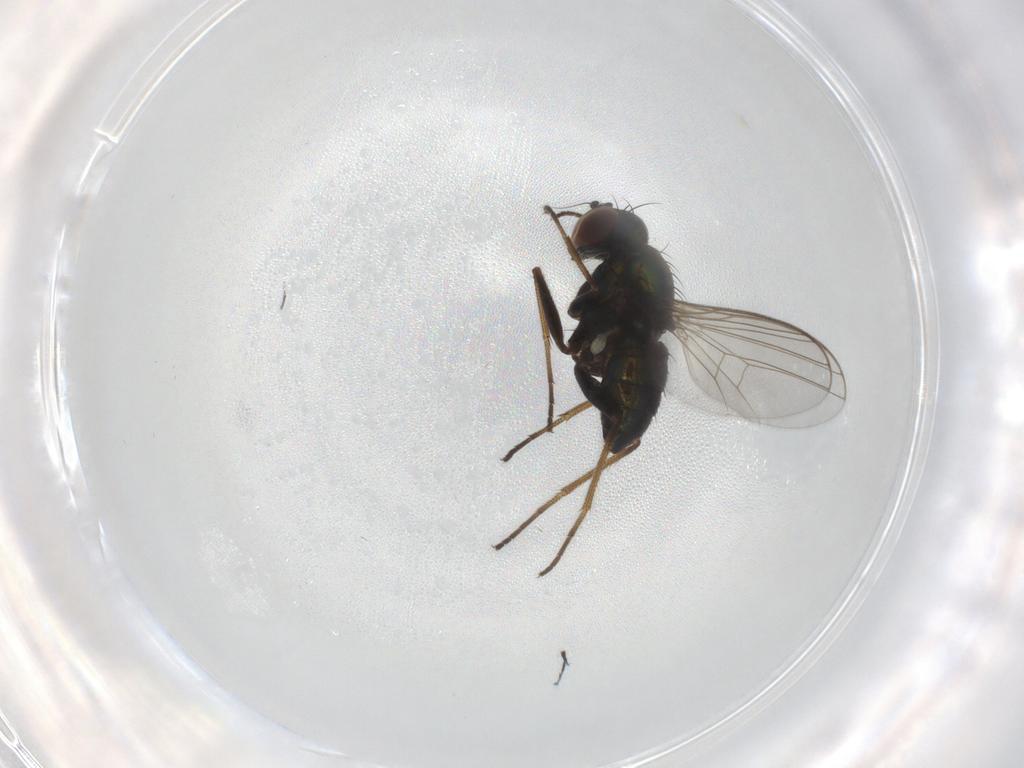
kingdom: Animalia
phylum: Arthropoda
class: Insecta
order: Diptera
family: Dolichopodidae
